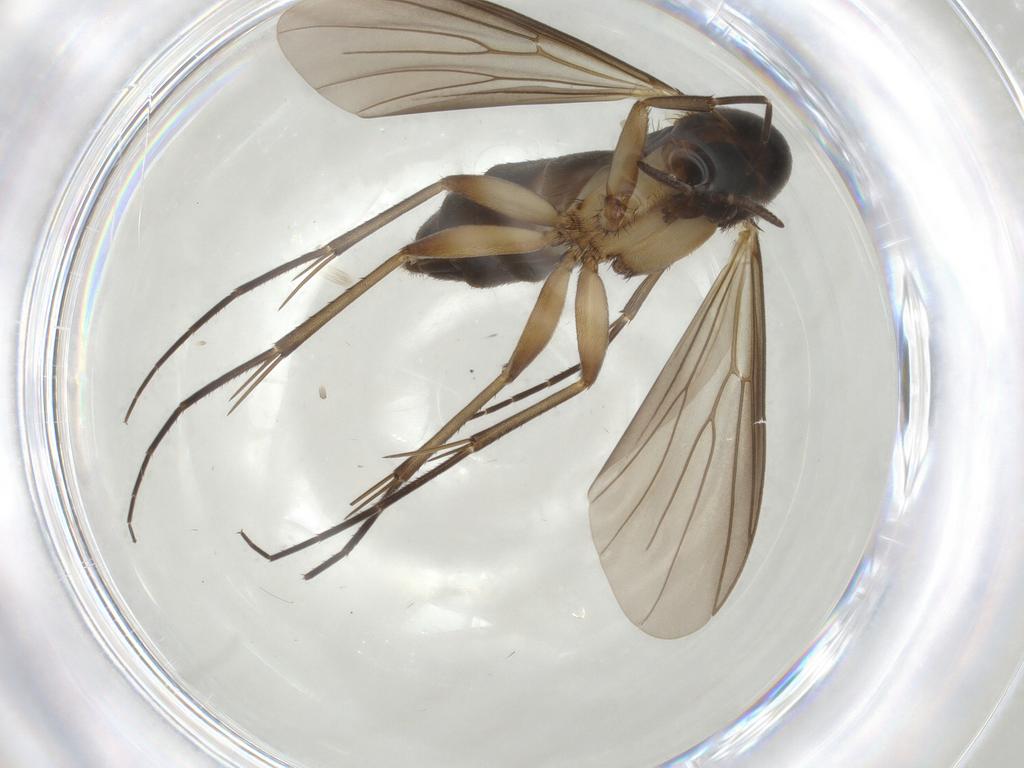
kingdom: Animalia
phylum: Arthropoda
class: Insecta
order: Diptera
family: Mycetophilidae
